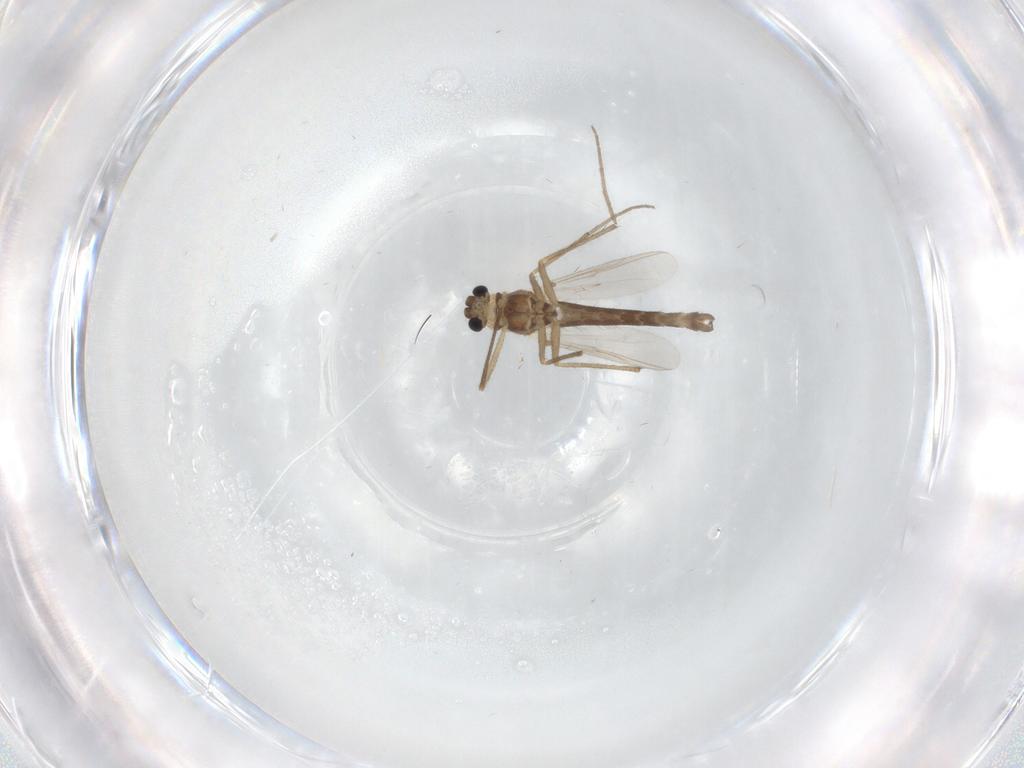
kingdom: Animalia
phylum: Arthropoda
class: Insecta
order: Diptera
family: Chironomidae
